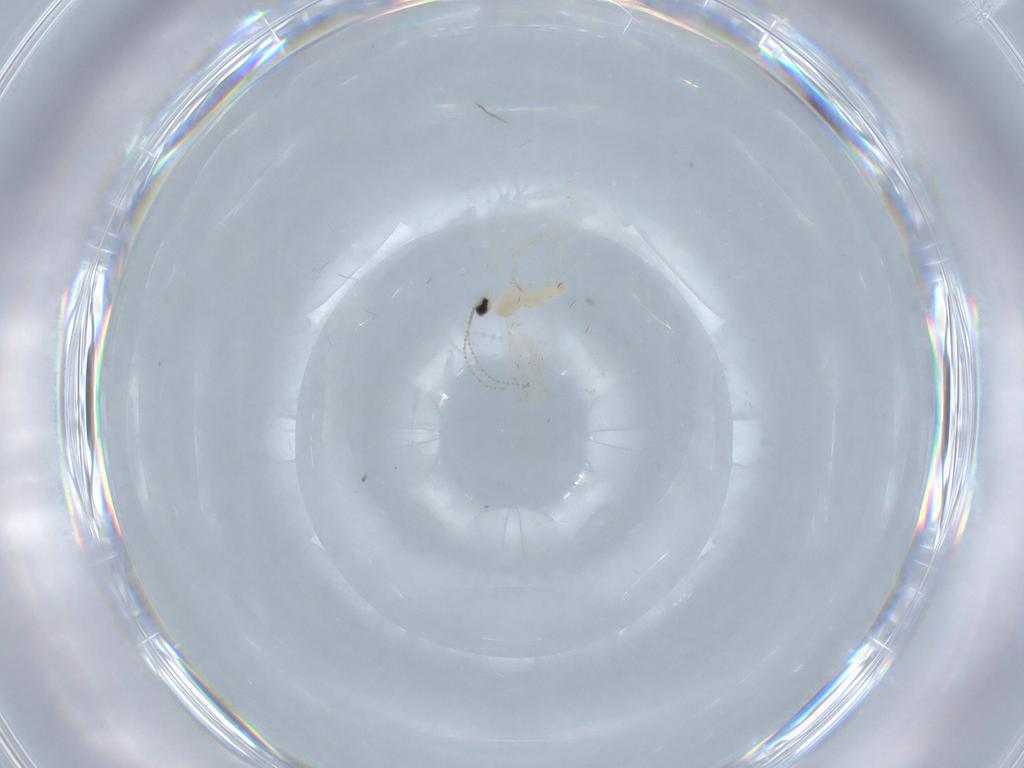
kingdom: Animalia
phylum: Arthropoda
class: Insecta
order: Diptera
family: Cecidomyiidae
